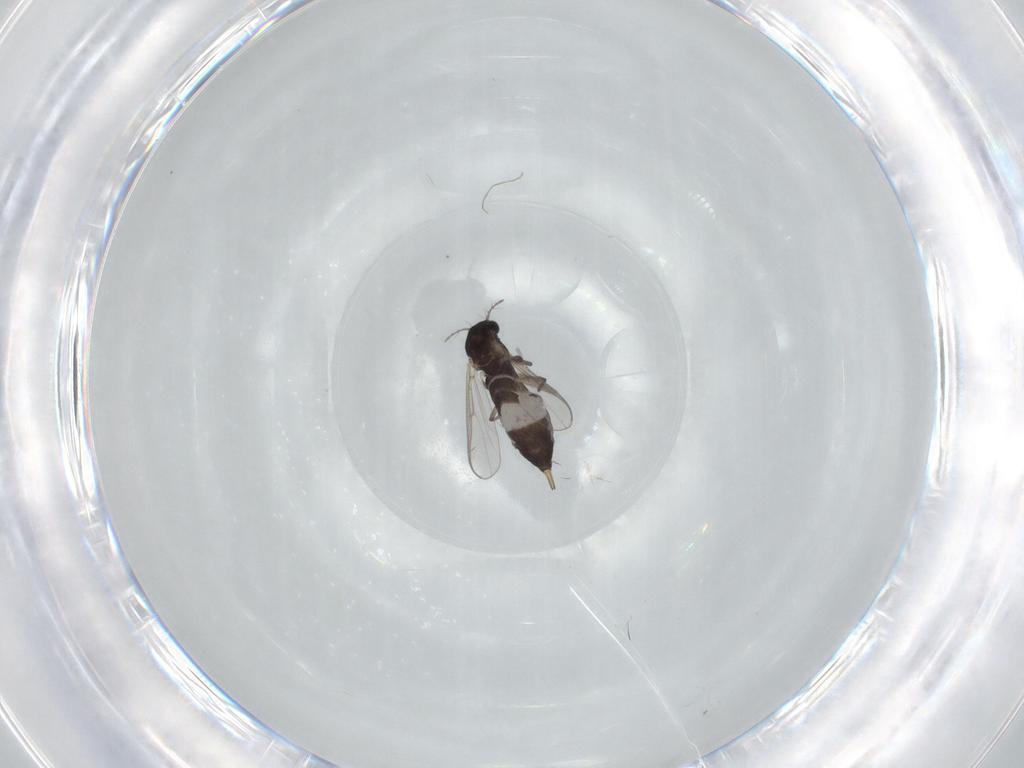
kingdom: Animalia
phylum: Arthropoda
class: Insecta
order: Diptera
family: Chironomidae
